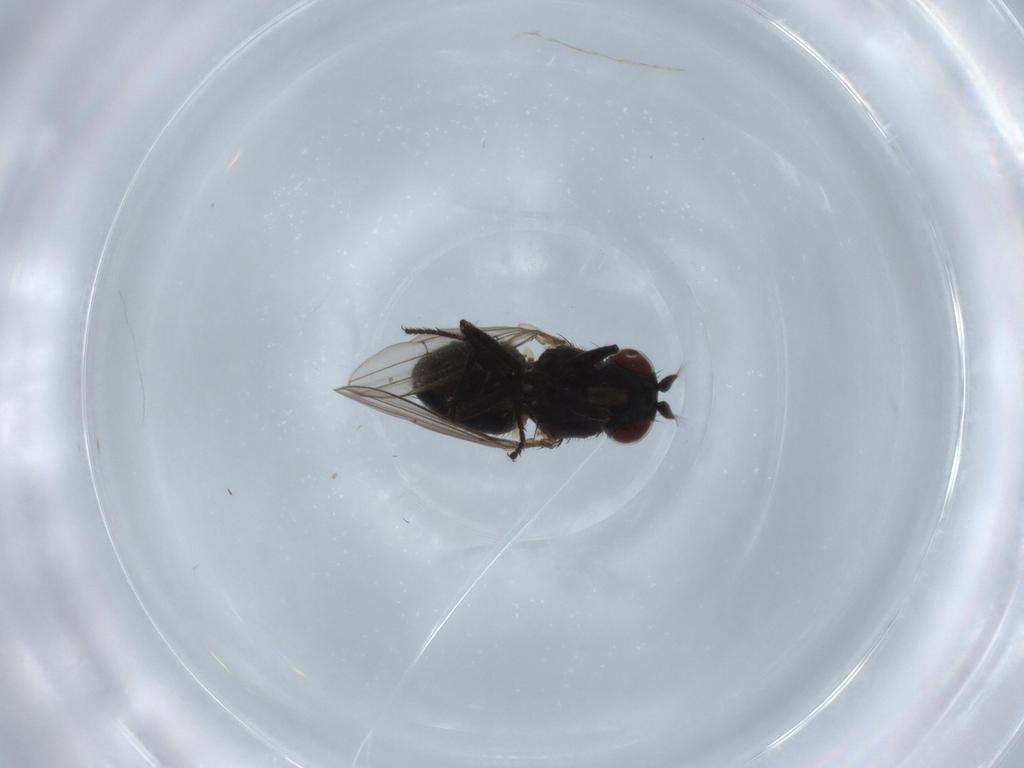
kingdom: Animalia
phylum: Arthropoda
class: Insecta
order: Diptera
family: Ephydridae
